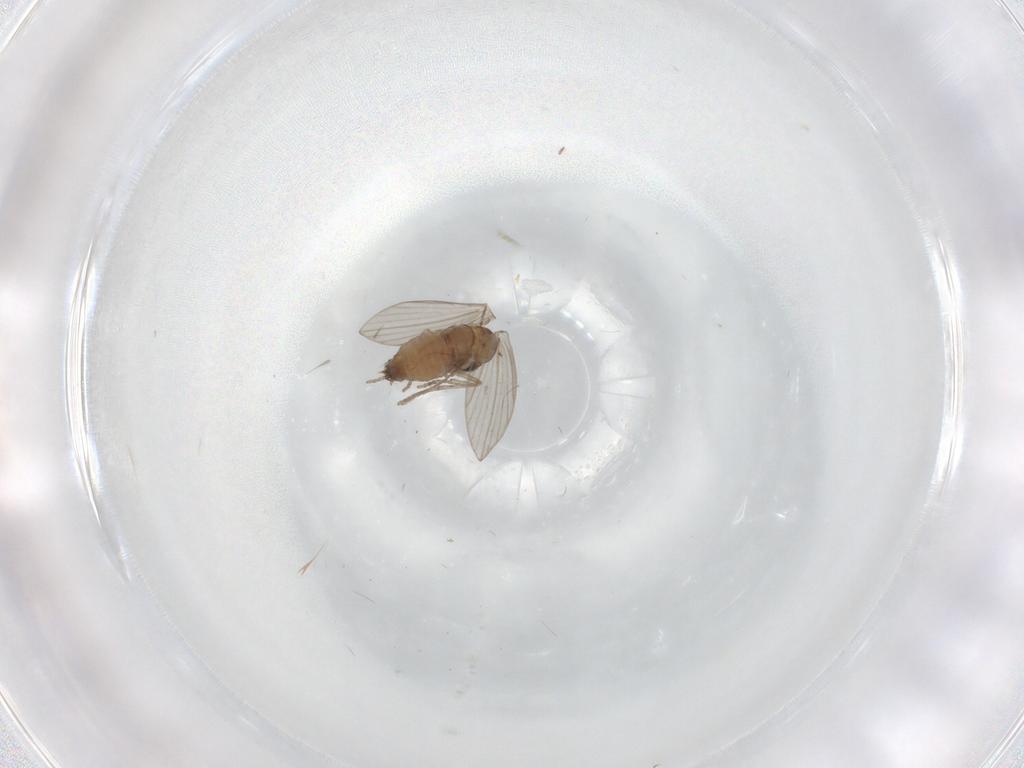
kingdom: Animalia
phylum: Arthropoda
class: Insecta
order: Diptera
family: Psychodidae
